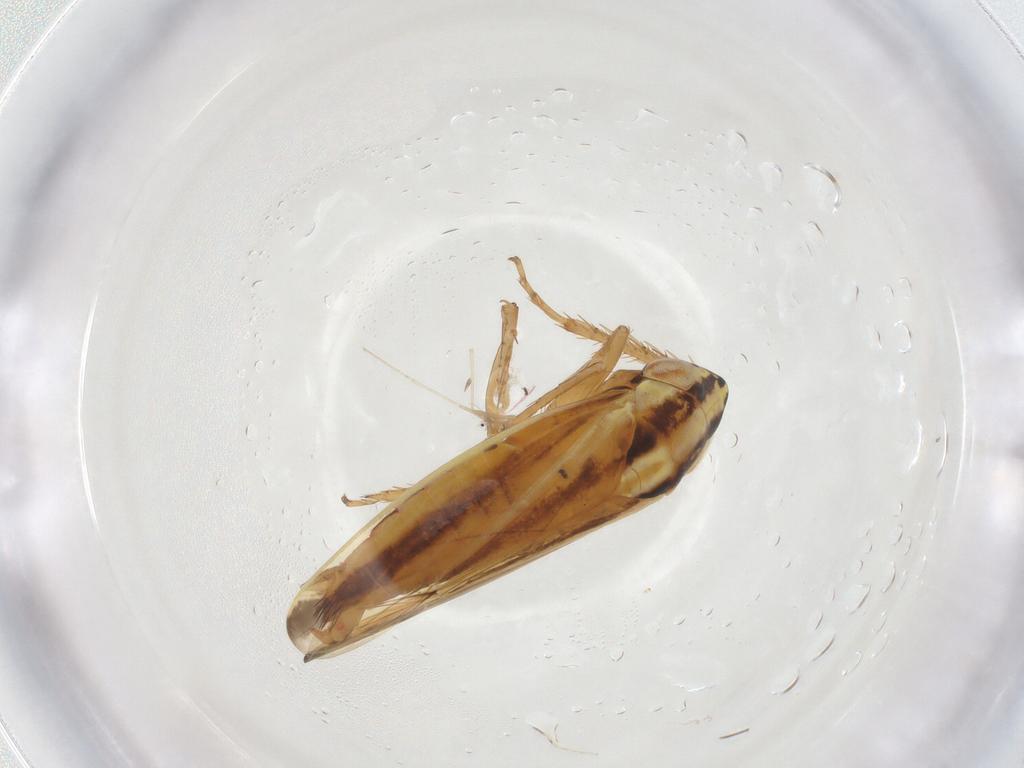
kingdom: Animalia
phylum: Arthropoda
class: Insecta
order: Hemiptera
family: Cicadellidae
